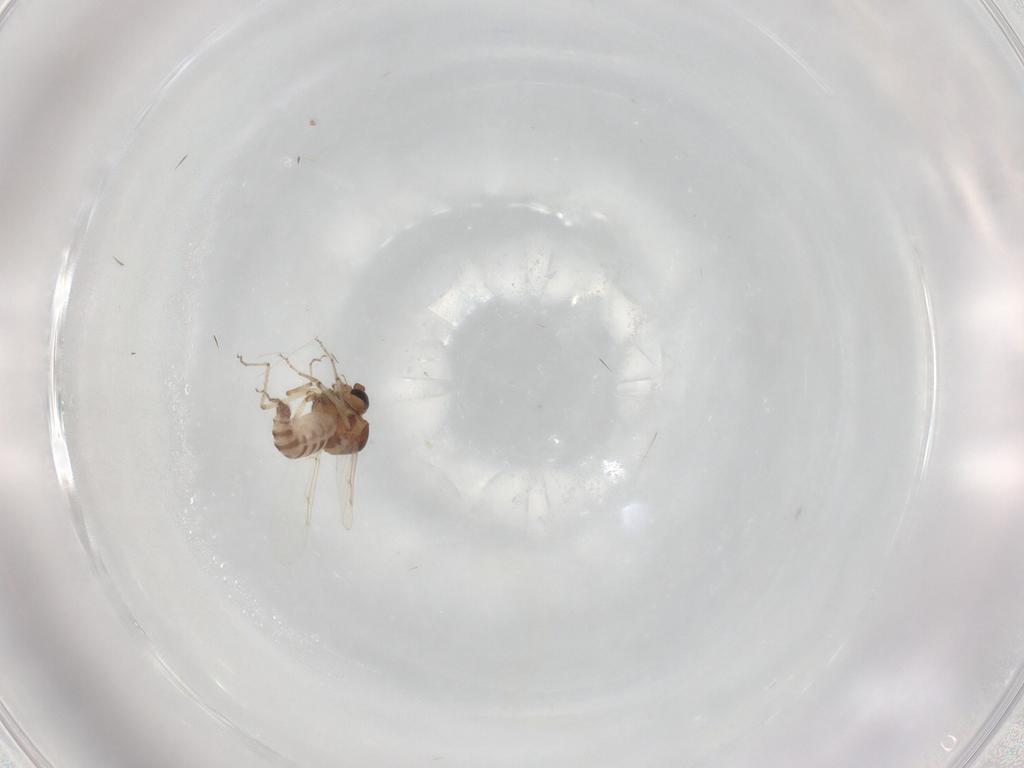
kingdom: Animalia
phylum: Arthropoda
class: Insecta
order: Diptera
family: Ceratopogonidae
